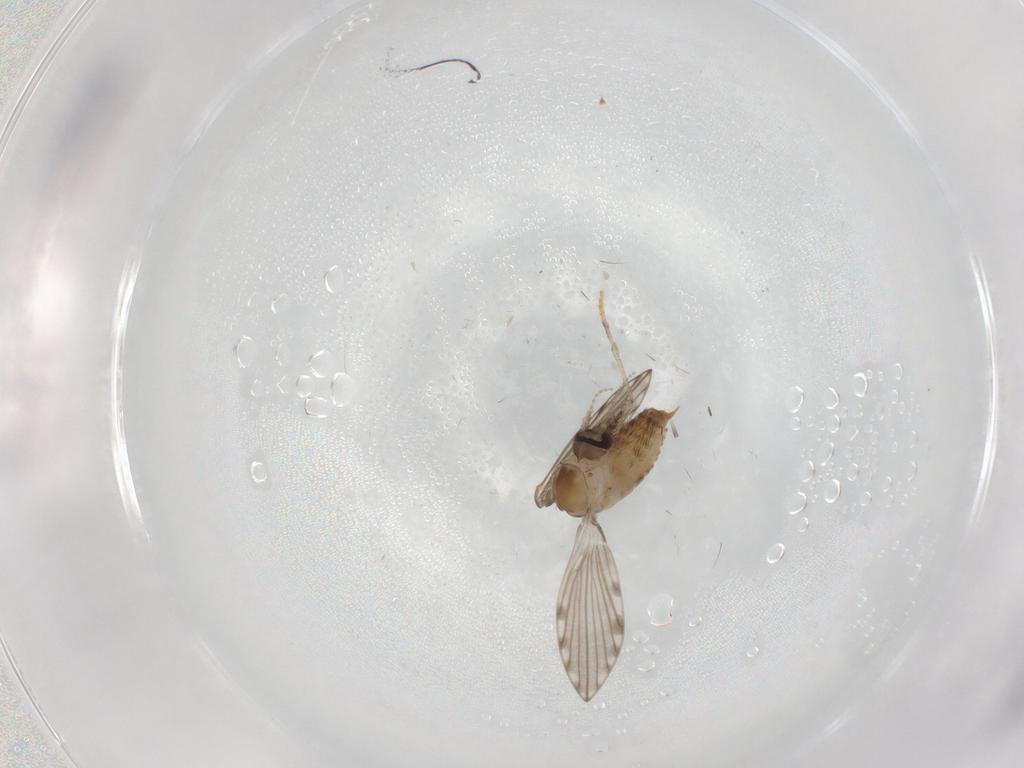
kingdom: Animalia
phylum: Arthropoda
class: Insecta
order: Diptera
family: Psychodidae
